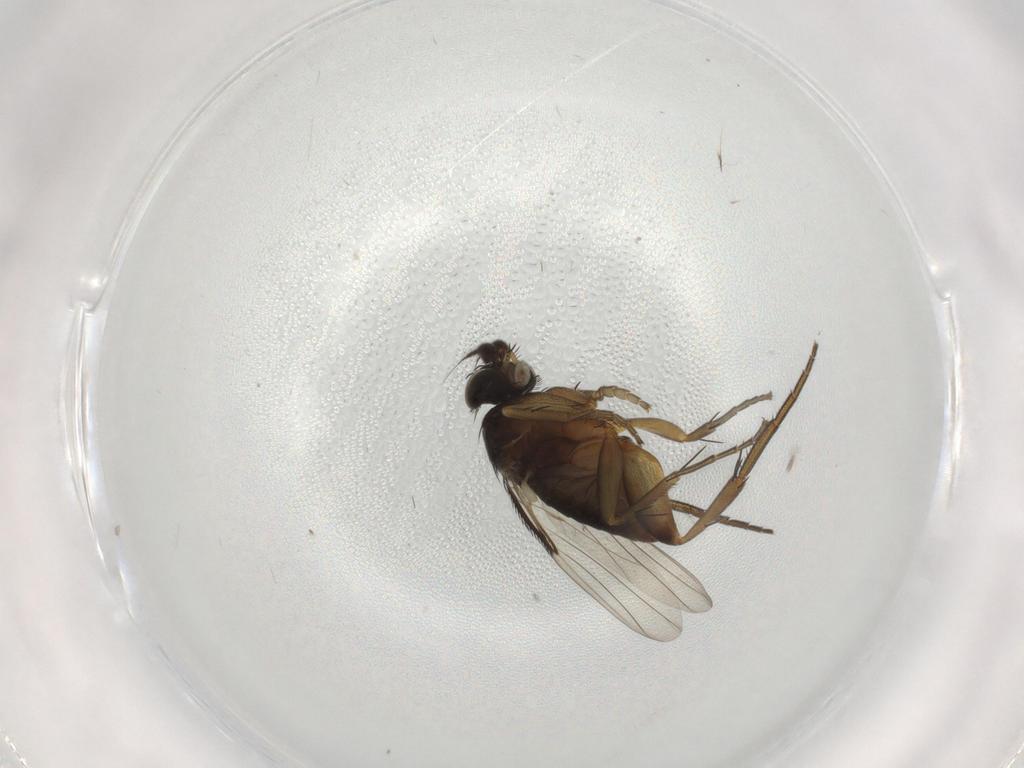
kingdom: Animalia
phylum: Arthropoda
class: Insecta
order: Diptera
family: Phoridae
